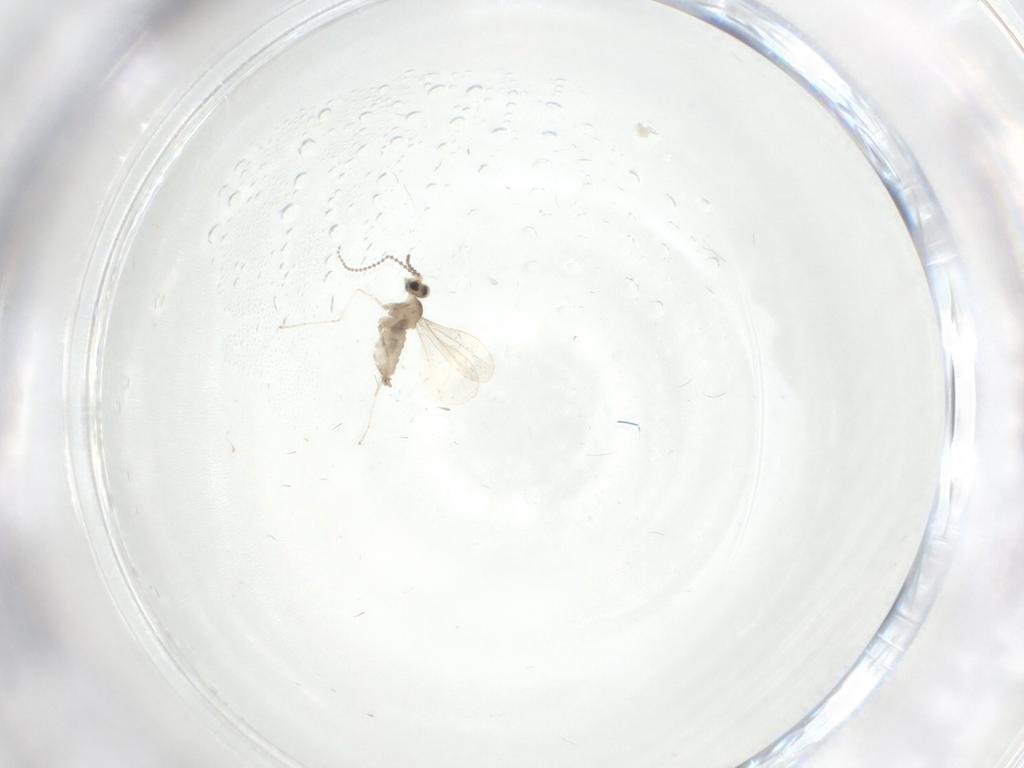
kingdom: Animalia
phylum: Arthropoda
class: Insecta
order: Diptera
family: Cecidomyiidae
